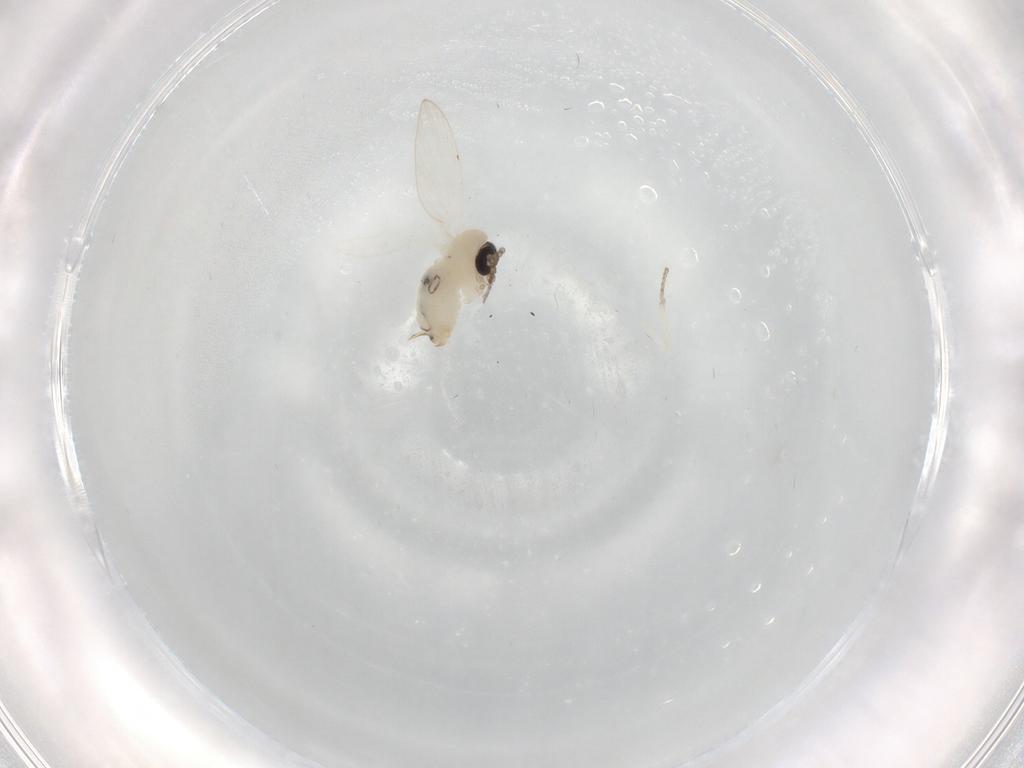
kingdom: Animalia
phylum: Arthropoda
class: Insecta
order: Diptera
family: Psychodidae
